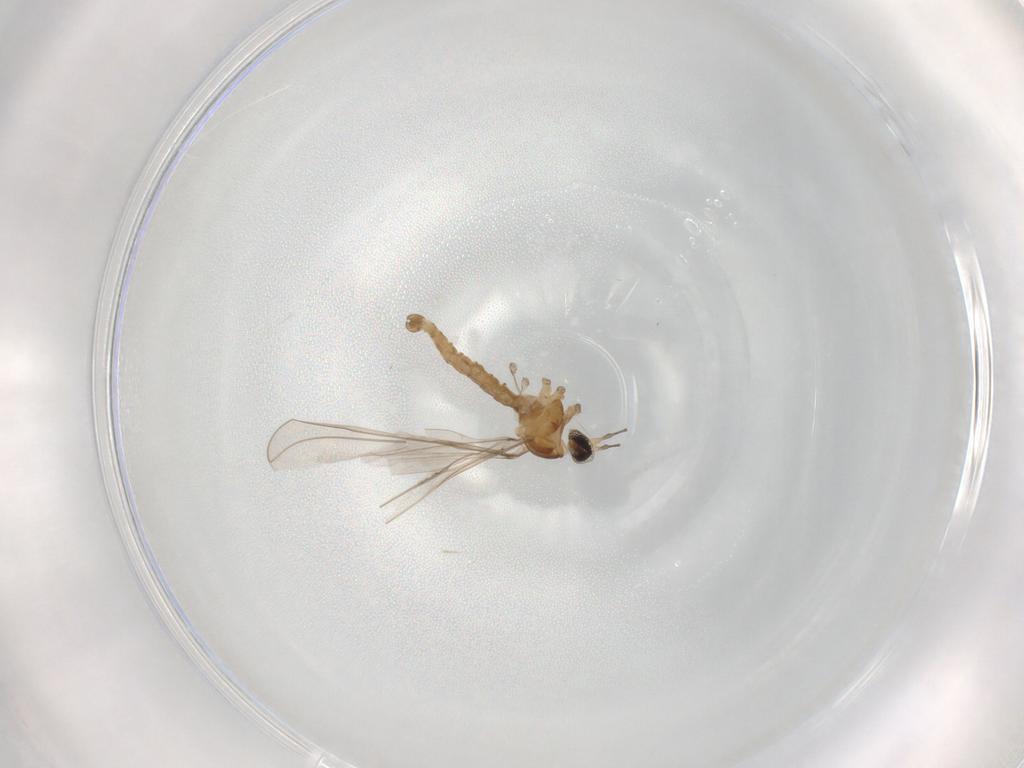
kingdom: Animalia
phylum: Arthropoda
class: Insecta
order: Diptera
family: Cecidomyiidae
